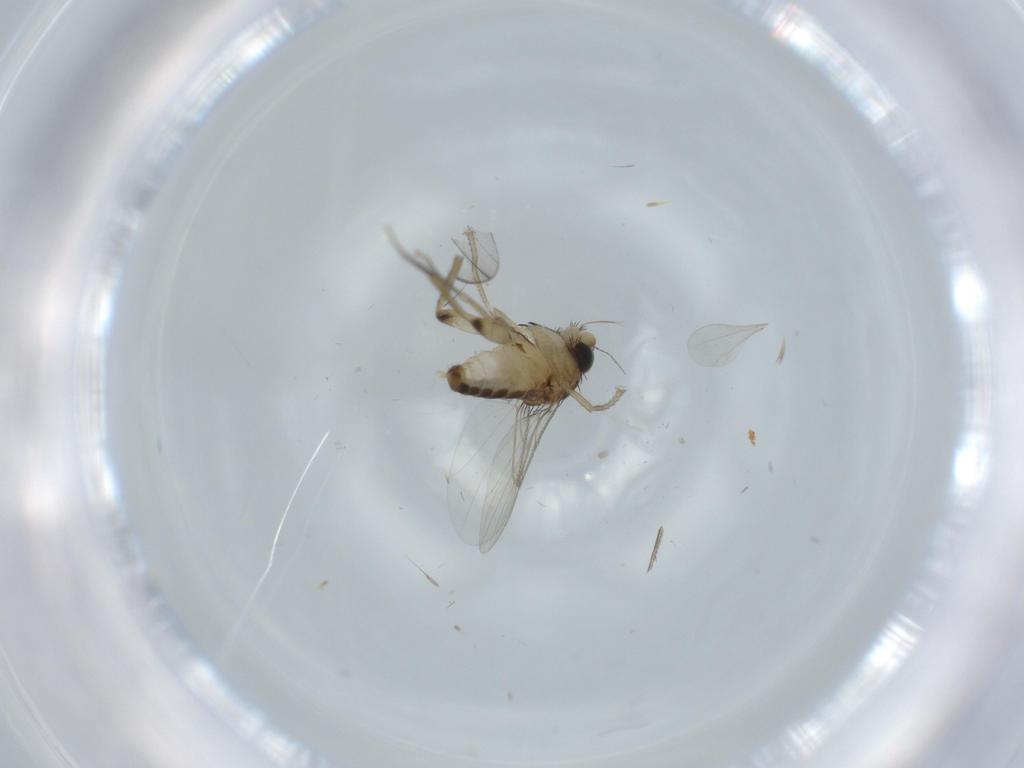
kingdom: Animalia
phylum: Arthropoda
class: Insecta
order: Diptera
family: Phoridae
